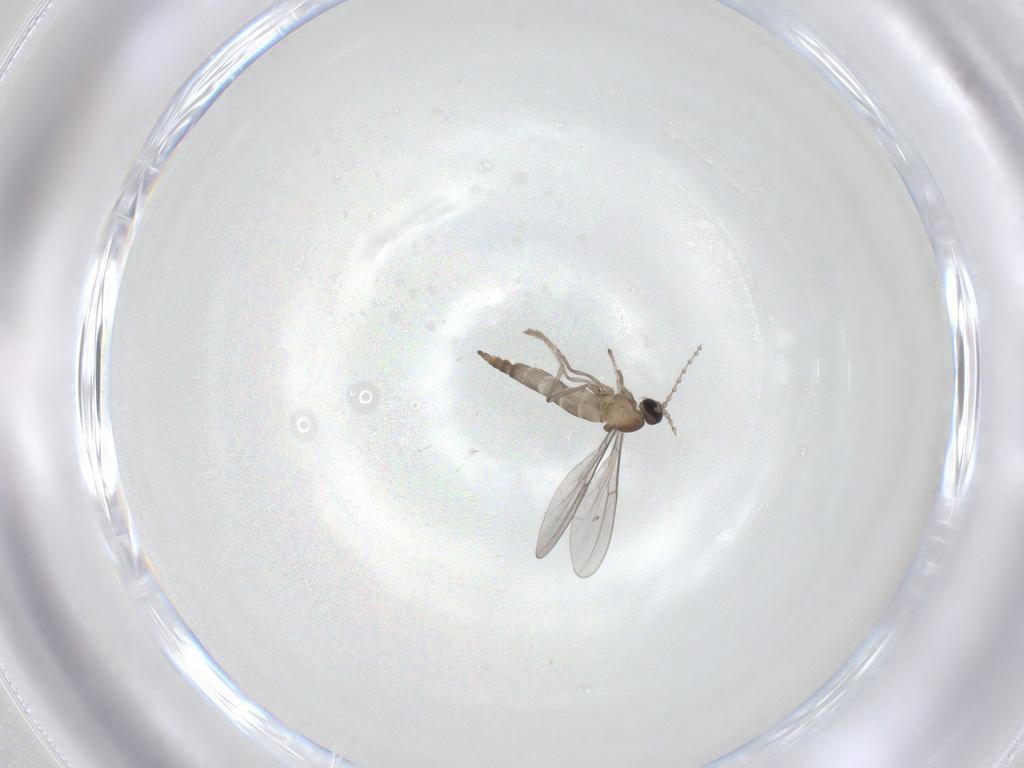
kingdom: Animalia
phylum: Arthropoda
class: Insecta
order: Diptera
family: Cecidomyiidae
